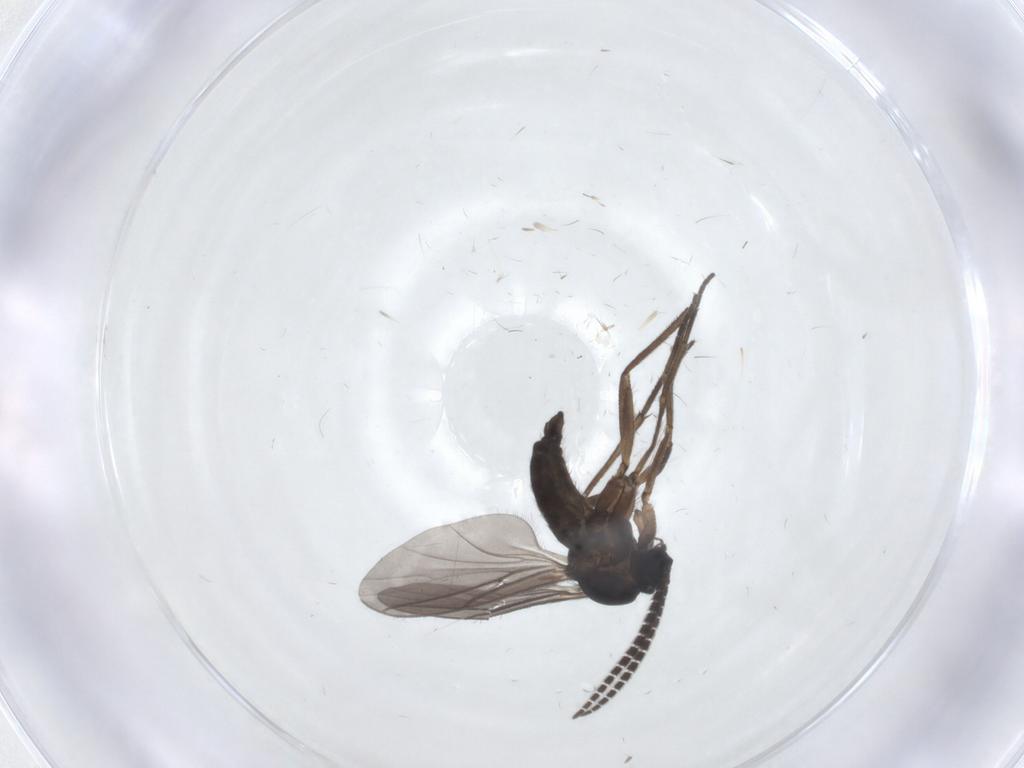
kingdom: Animalia
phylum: Arthropoda
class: Insecta
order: Diptera
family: Sciaridae
